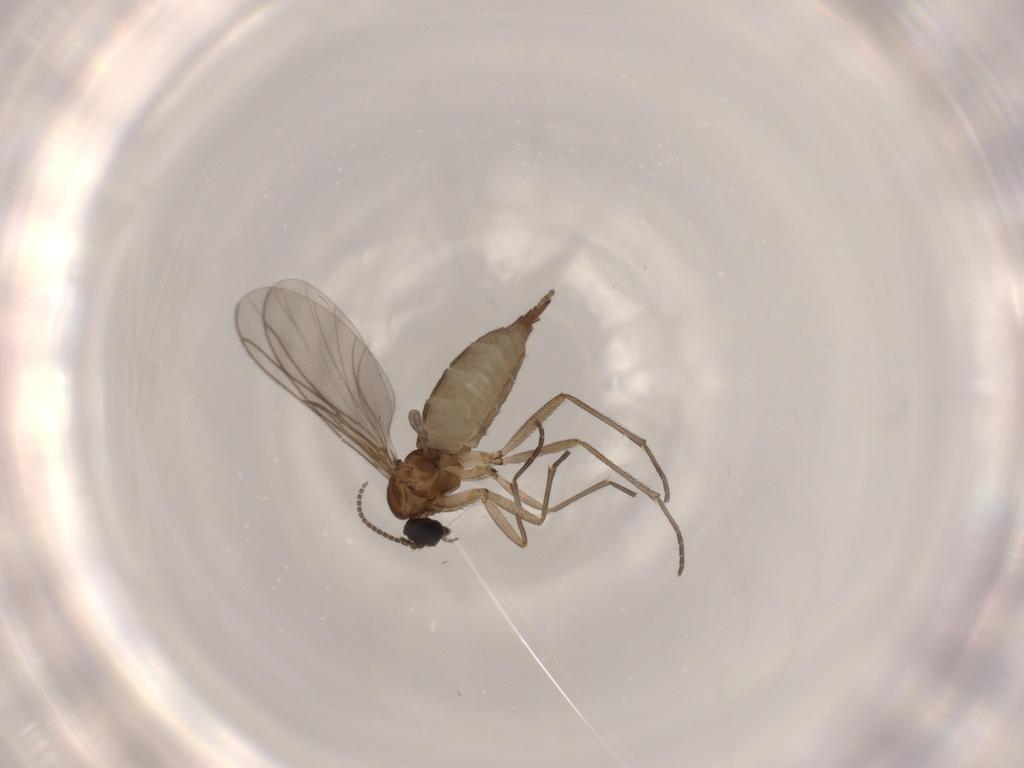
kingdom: Animalia
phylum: Arthropoda
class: Insecta
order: Diptera
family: Sciaridae
